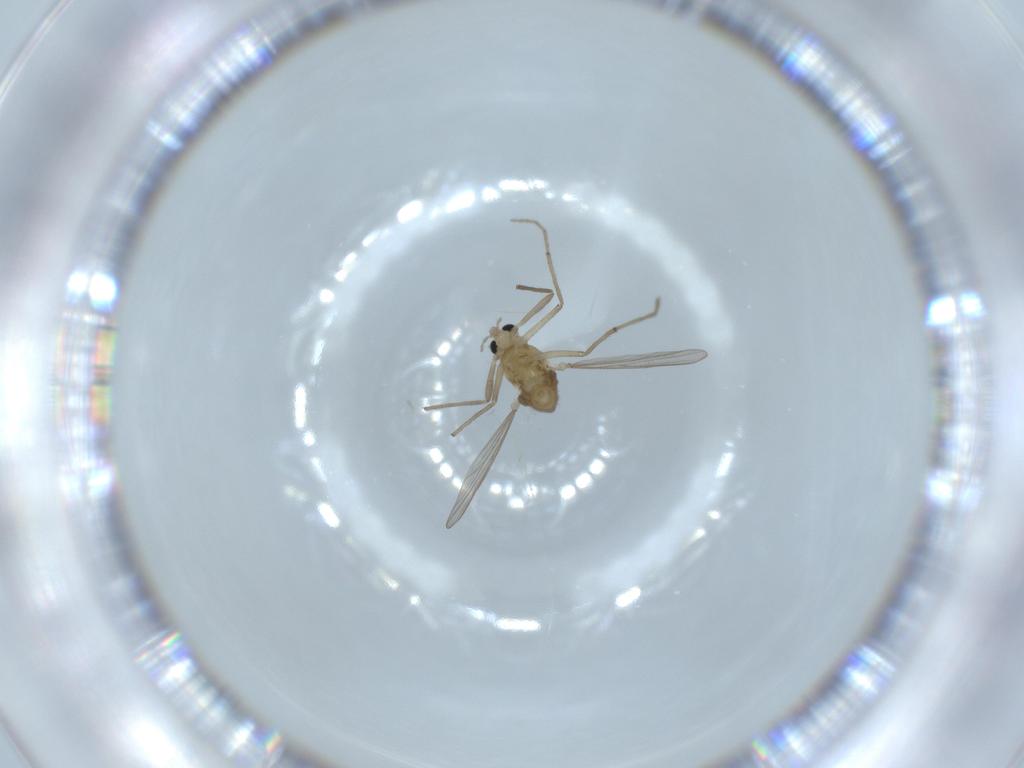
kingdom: Animalia
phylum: Arthropoda
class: Insecta
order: Diptera
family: Chironomidae
